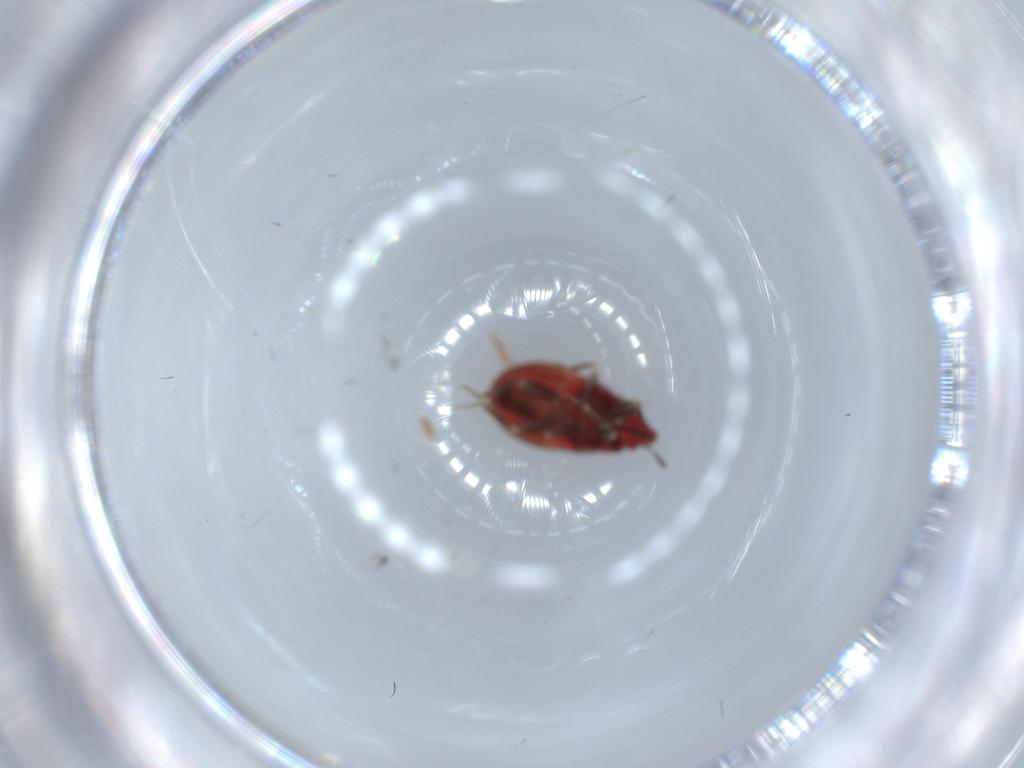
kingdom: Animalia
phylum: Arthropoda
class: Insecta
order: Hemiptera
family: Anthocoridae
